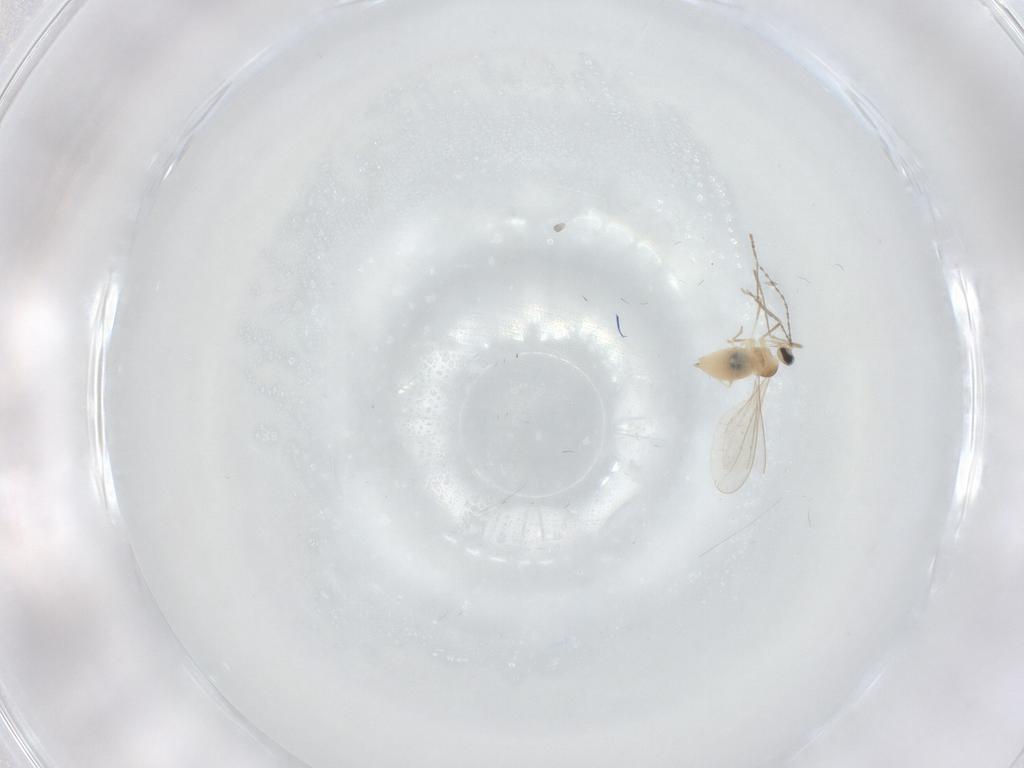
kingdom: Animalia
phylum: Arthropoda
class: Insecta
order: Diptera
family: Cecidomyiidae
